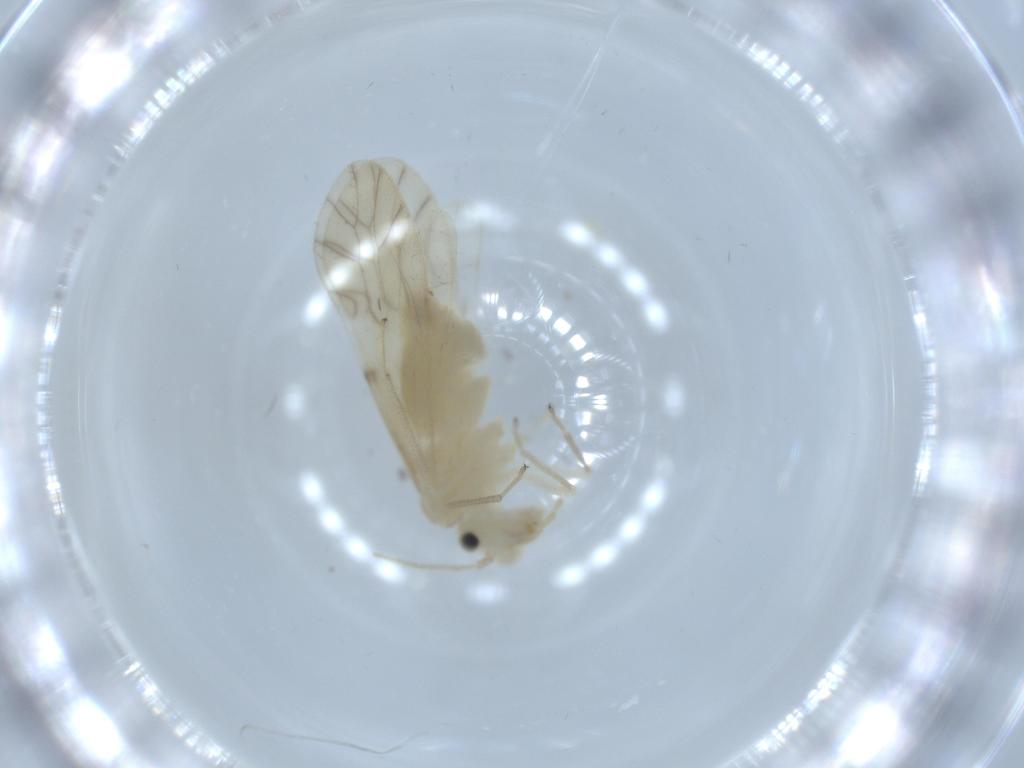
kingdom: Animalia
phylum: Arthropoda
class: Insecta
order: Psocodea
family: Caeciliusidae
